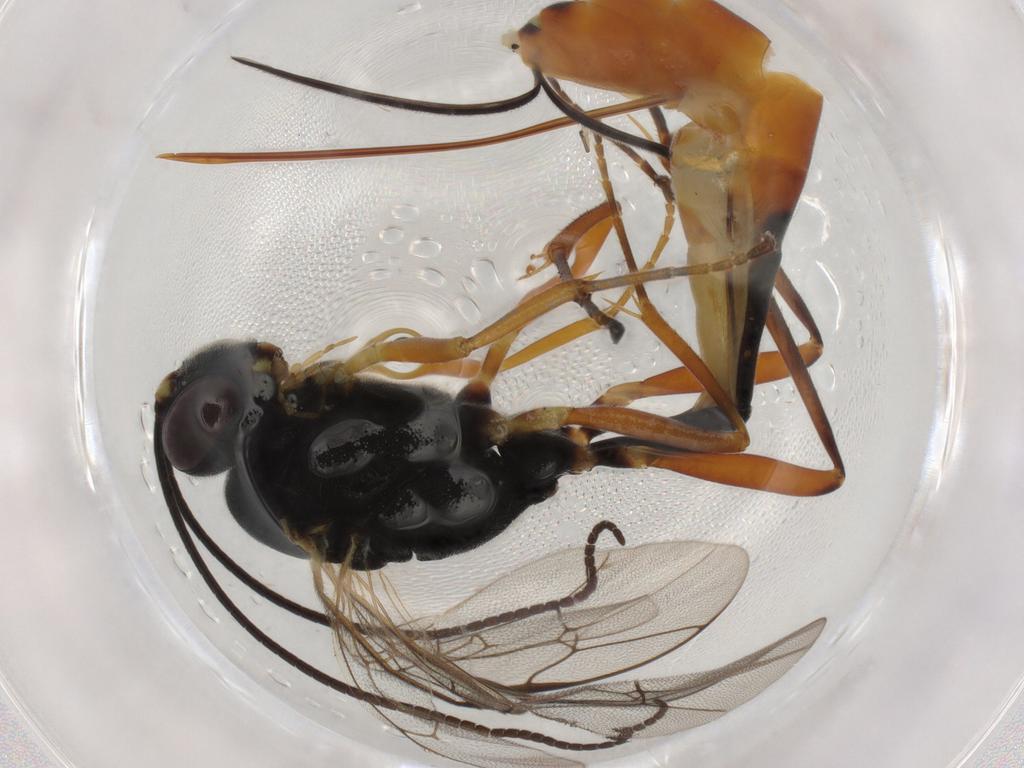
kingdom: Animalia
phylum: Arthropoda
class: Insecta
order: Hymenoptera
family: Ichneumonidae
